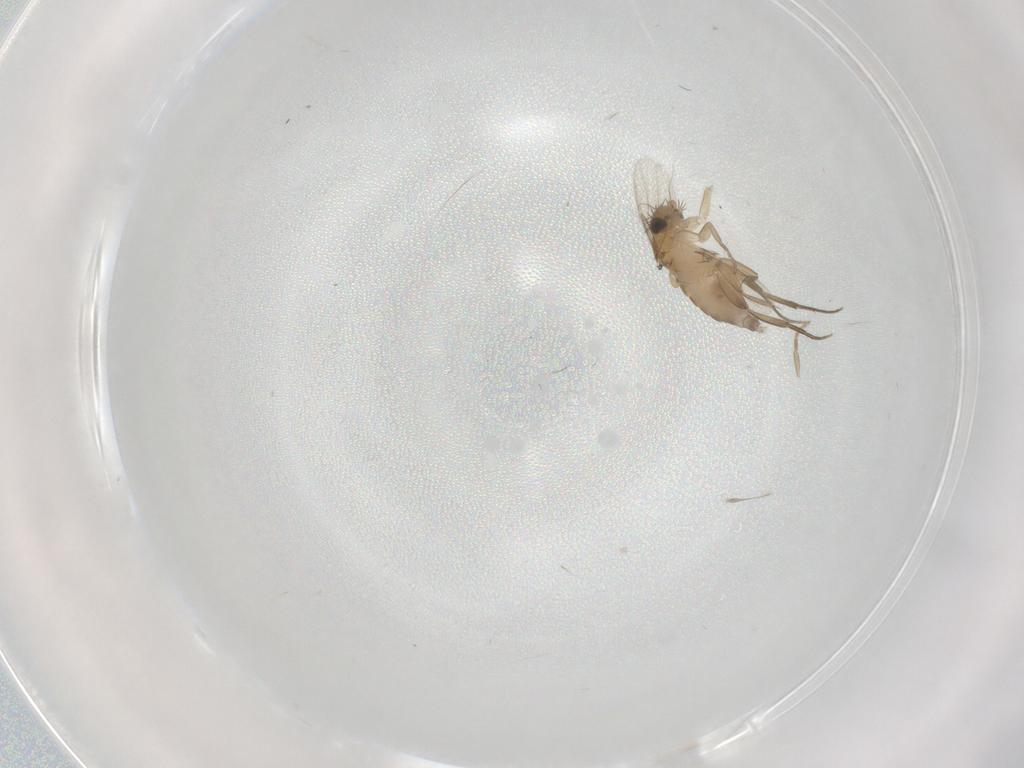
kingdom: Animalia
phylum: Arthropoda
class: Insecta
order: Diptera
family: Phoridae
